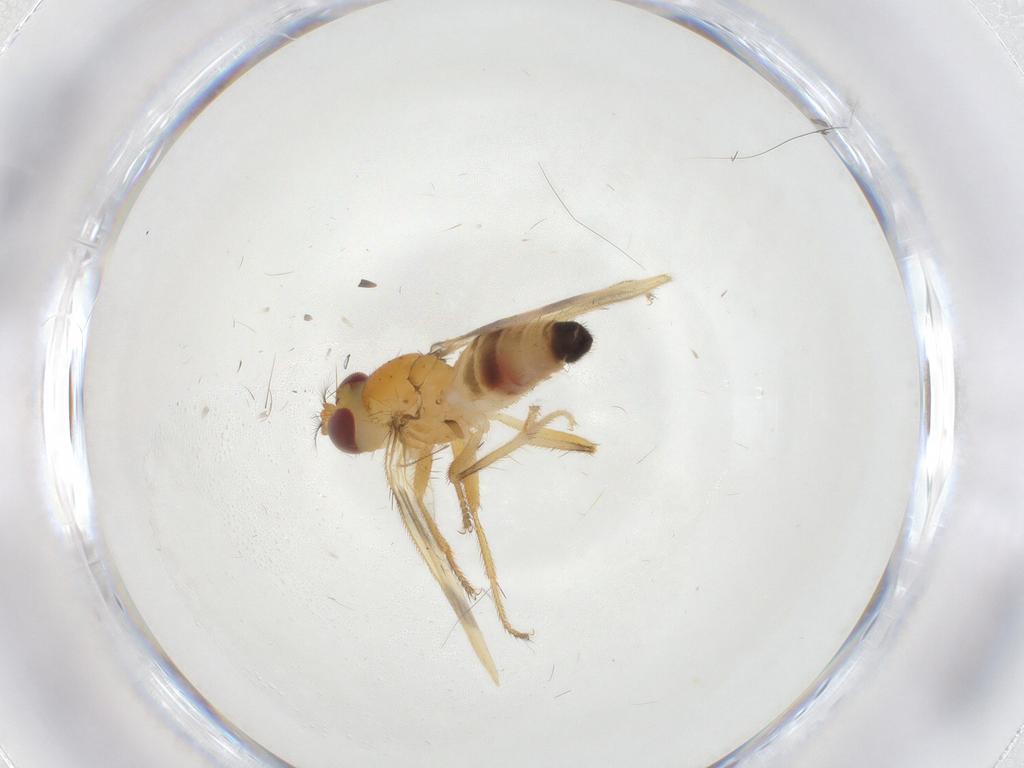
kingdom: Animalia
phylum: Arthropoda
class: Insecta
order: Diptera
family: Periscelididae
